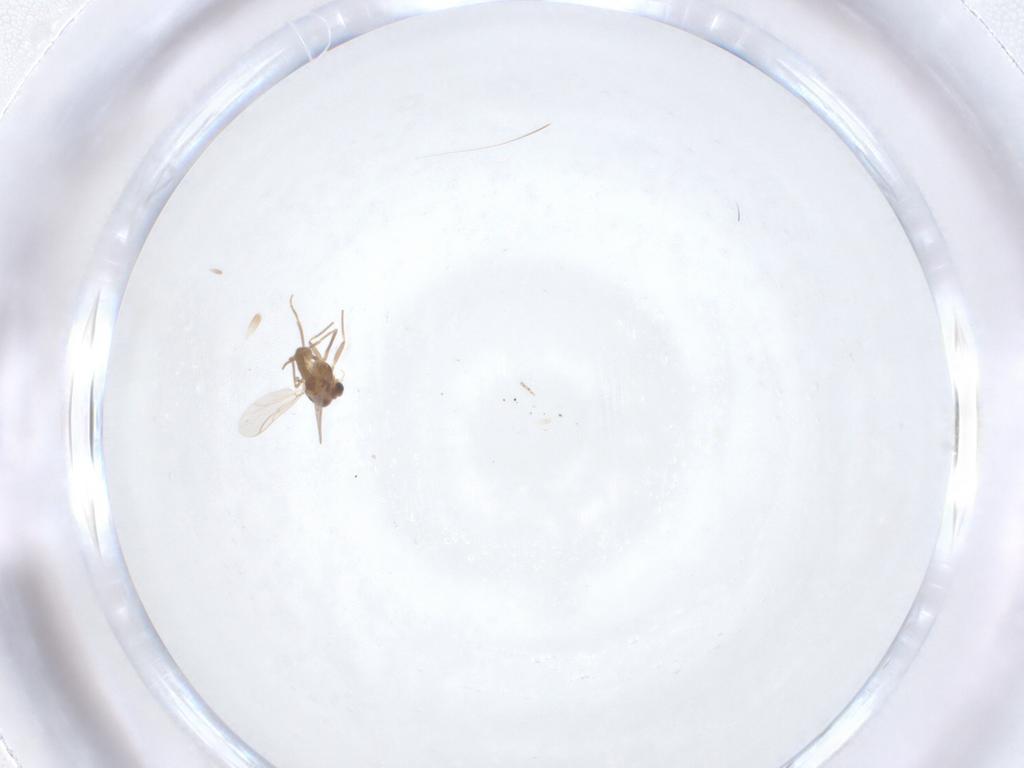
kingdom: Animalia
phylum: Arthropoda
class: Insecta
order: Diptera
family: Chironomidae
